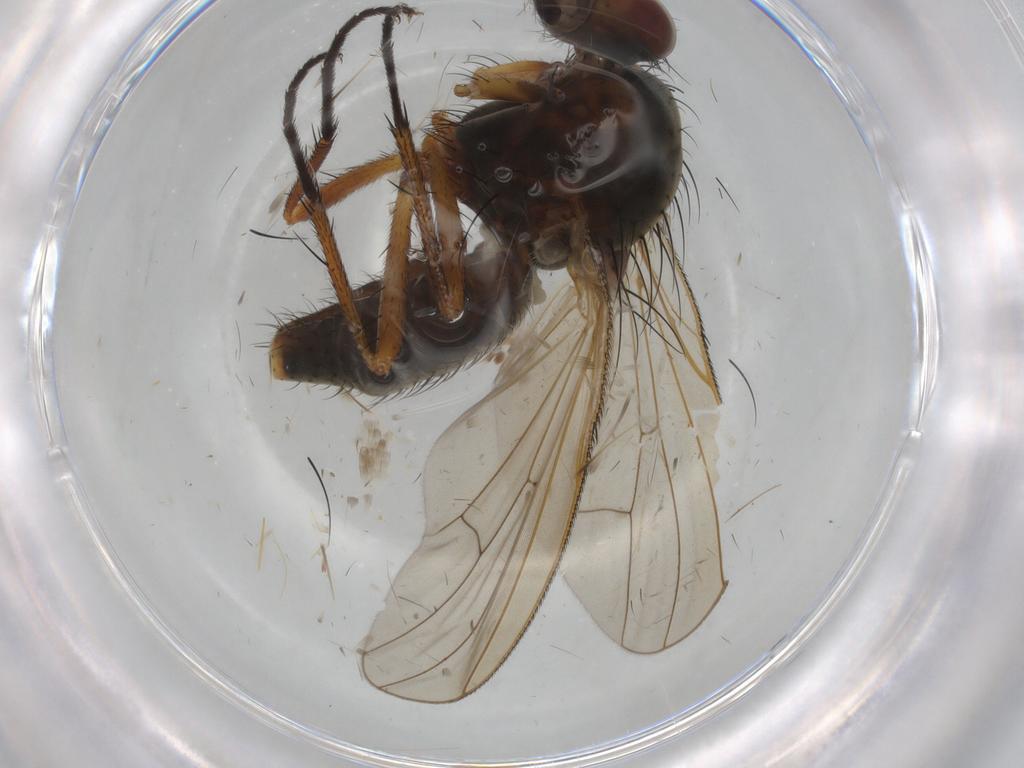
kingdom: Animalia
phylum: Arthropoda
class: Insecta
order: Diptera
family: Anthomyiidae
